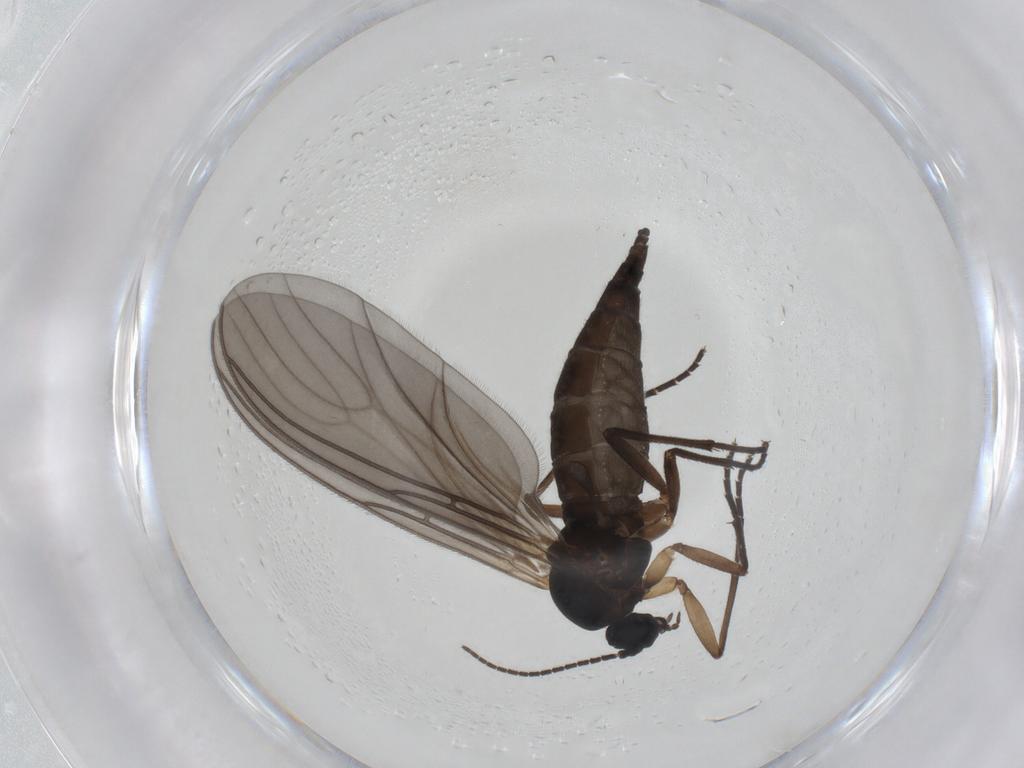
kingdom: Animalia
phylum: Arthropoda
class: Insecta
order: Diptera
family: Sciaridae
